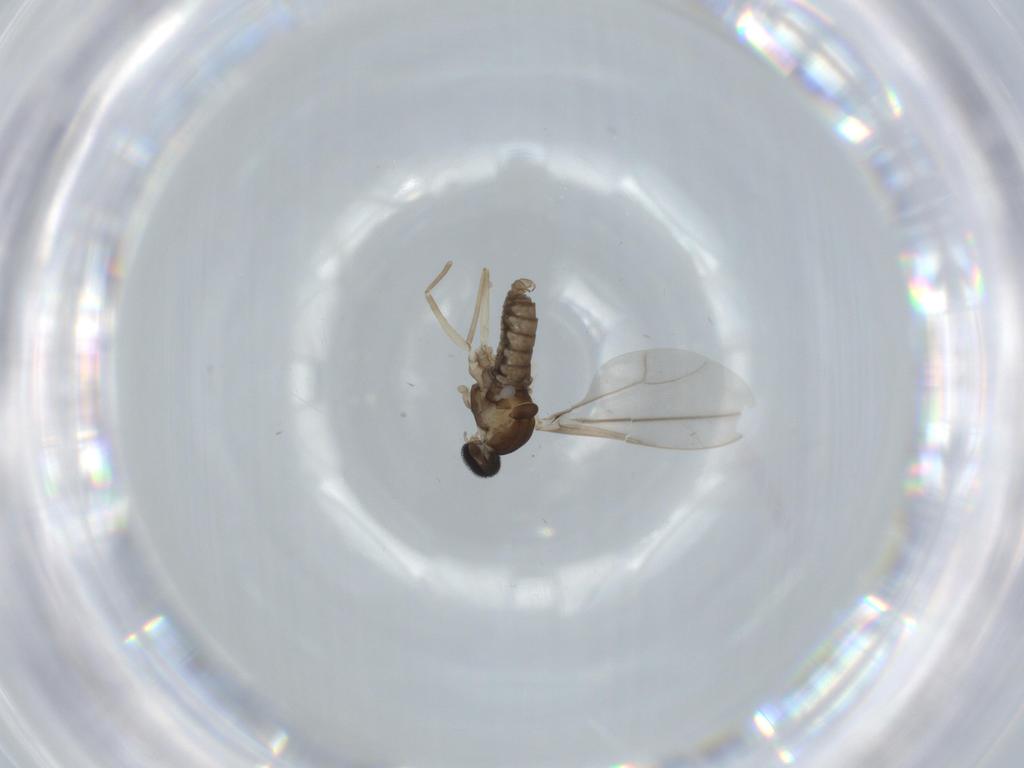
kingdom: Animalia
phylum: Arthropoda
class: Insecta
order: Diptera
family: Cecidomyiidae
